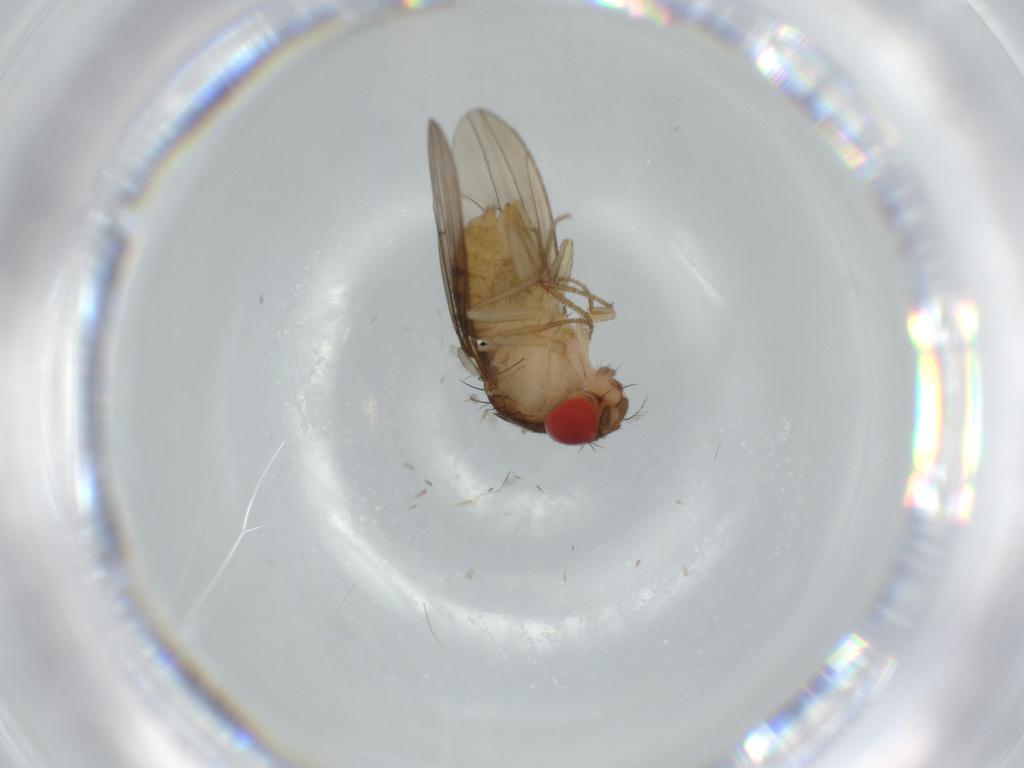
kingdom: Animalia
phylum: Arthropoda
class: Insecta
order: Diptera
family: Drosophilidae
